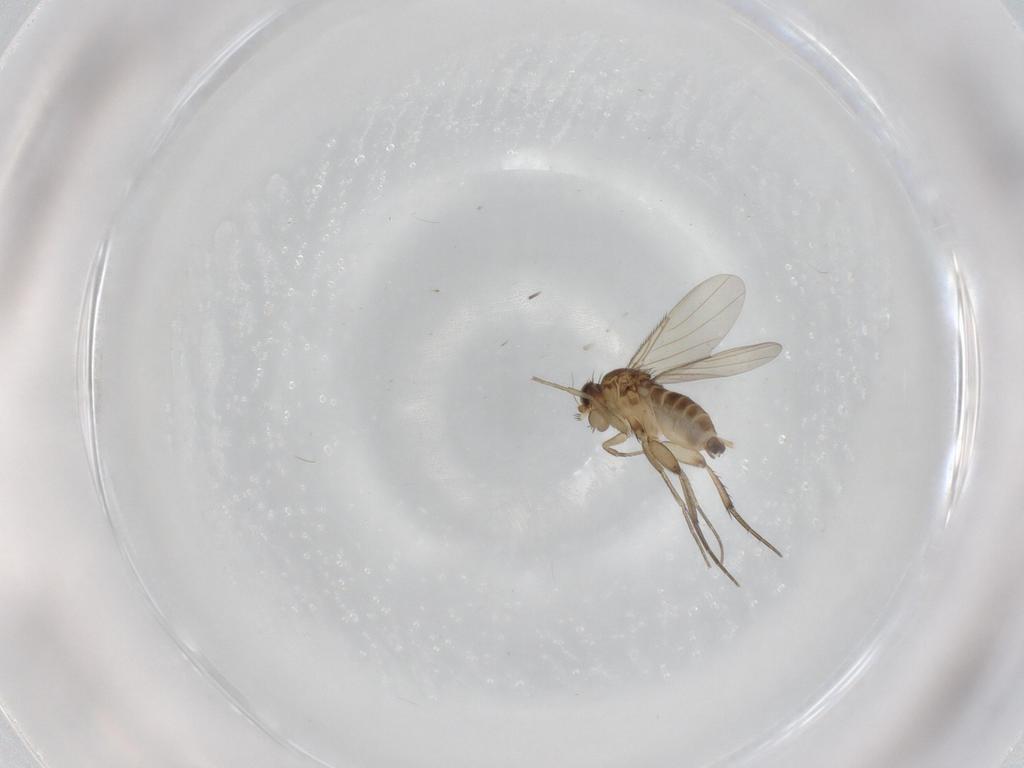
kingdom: Animalia
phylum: Arthropoda
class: Insecta
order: Diptera
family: Phoridae
